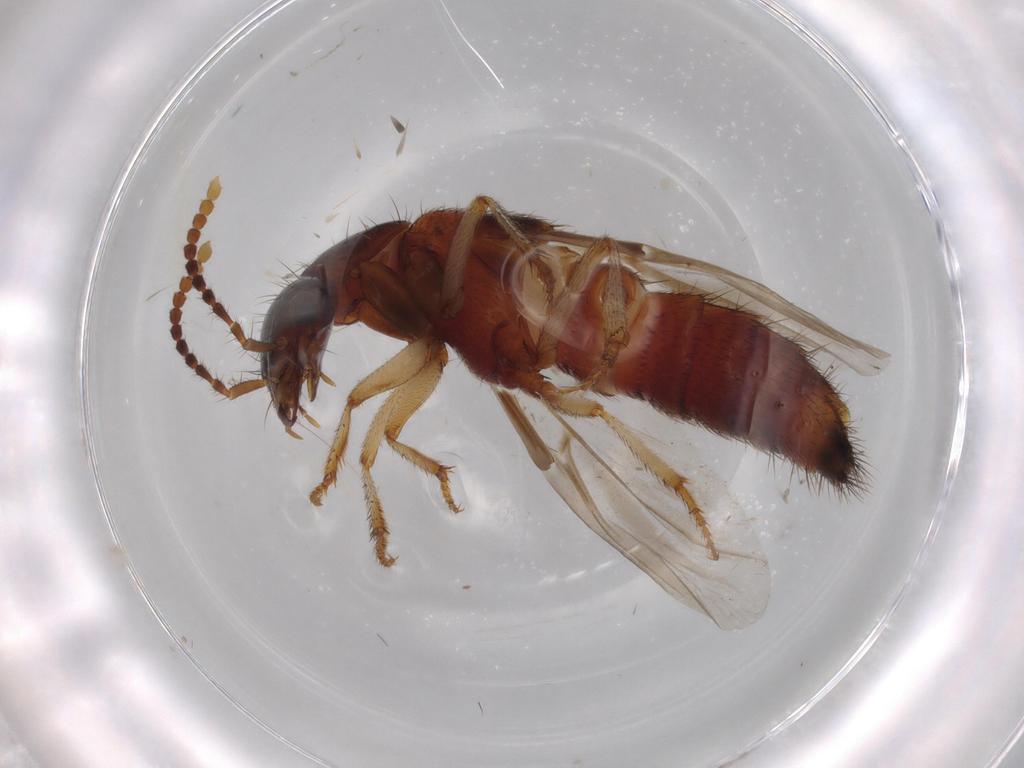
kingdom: Animalia
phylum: Arthropoda
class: Insecta
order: Coleoptera
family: Staphylinidae
